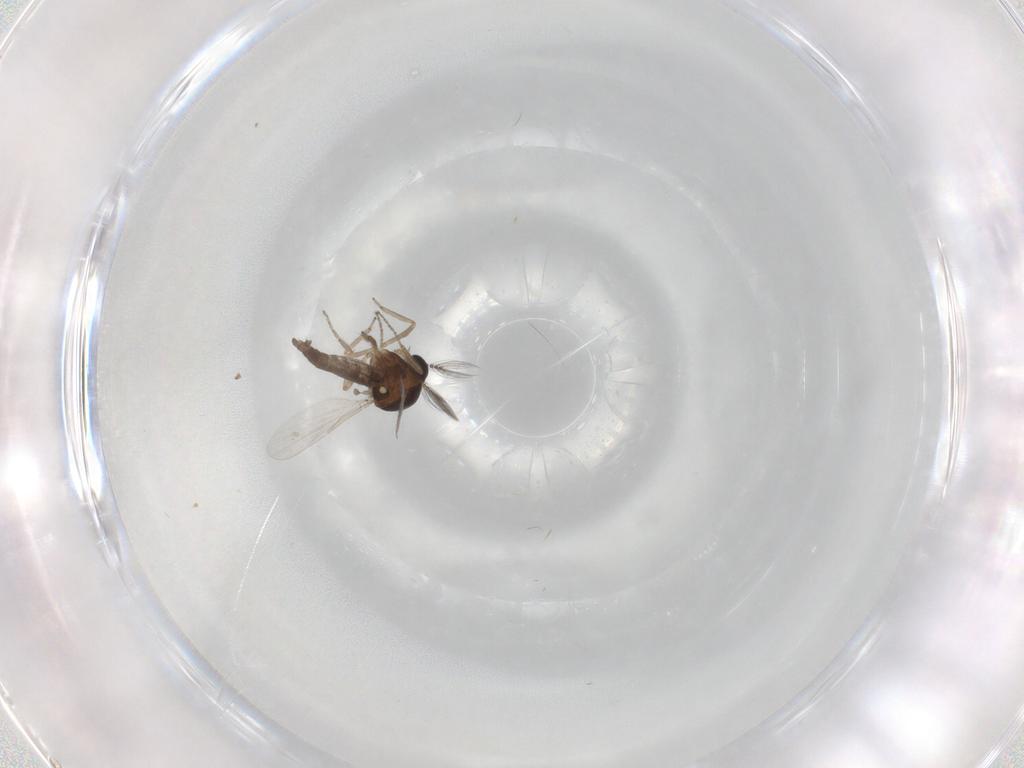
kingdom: Animalia
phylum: Arthropoda
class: Insecta
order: Diptera
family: Ceratopogonidae
